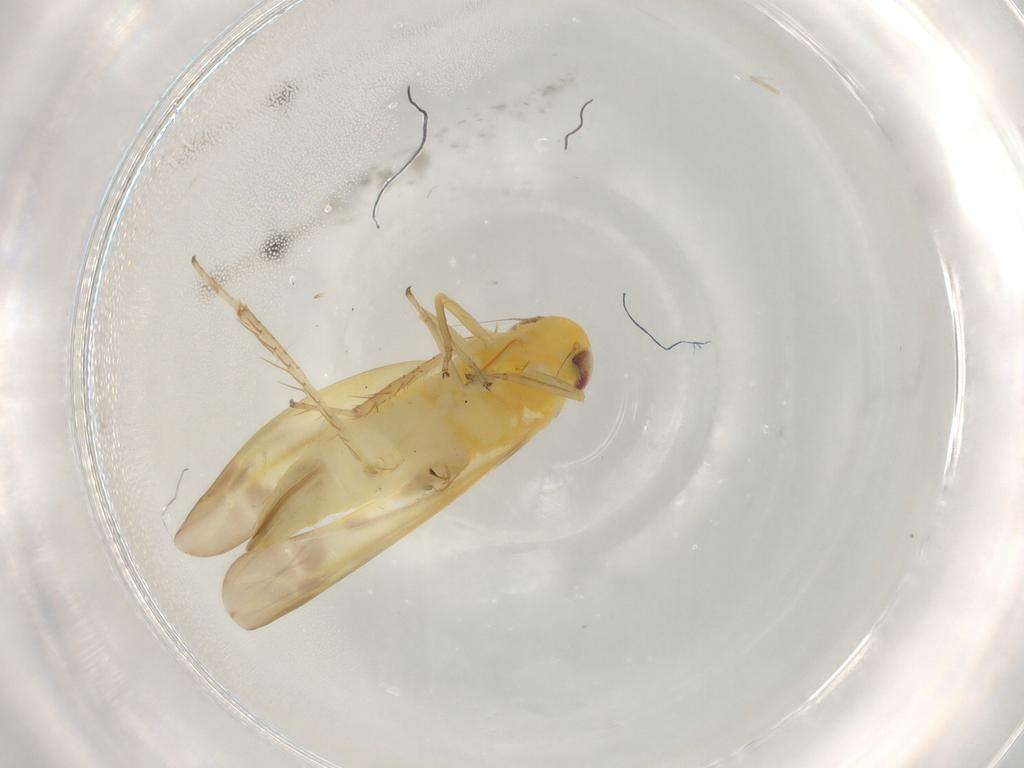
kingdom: Animalia
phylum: Arthropoda
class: Insecta
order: Hemiptera
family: Cicadellidae
